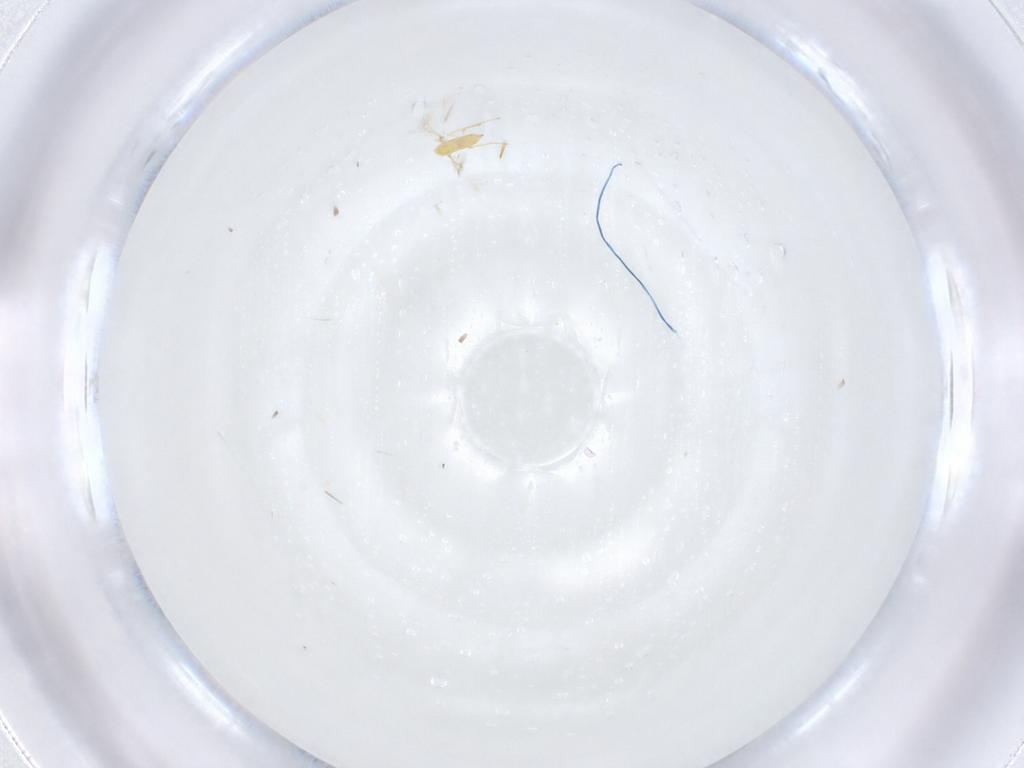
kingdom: Animalia
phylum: Arthropoda
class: Insecta
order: Hymenoptera
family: Mymaridae
